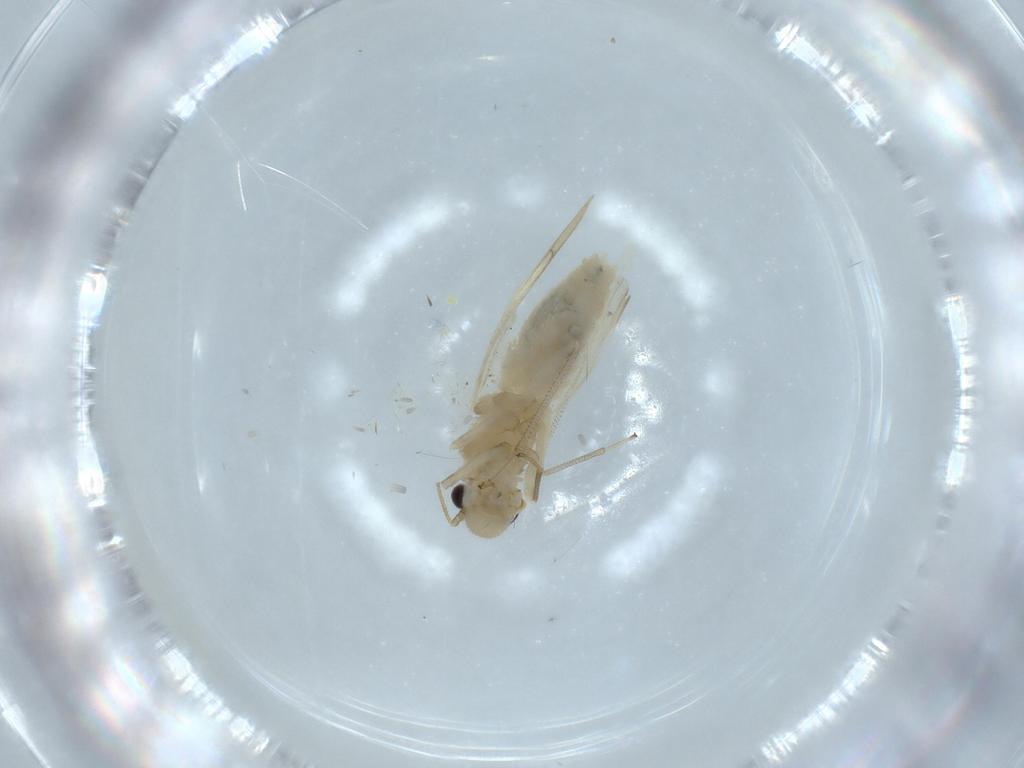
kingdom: Animalia
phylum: Arthropoda
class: Insecta
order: Psocodea
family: Caeciliusidae
